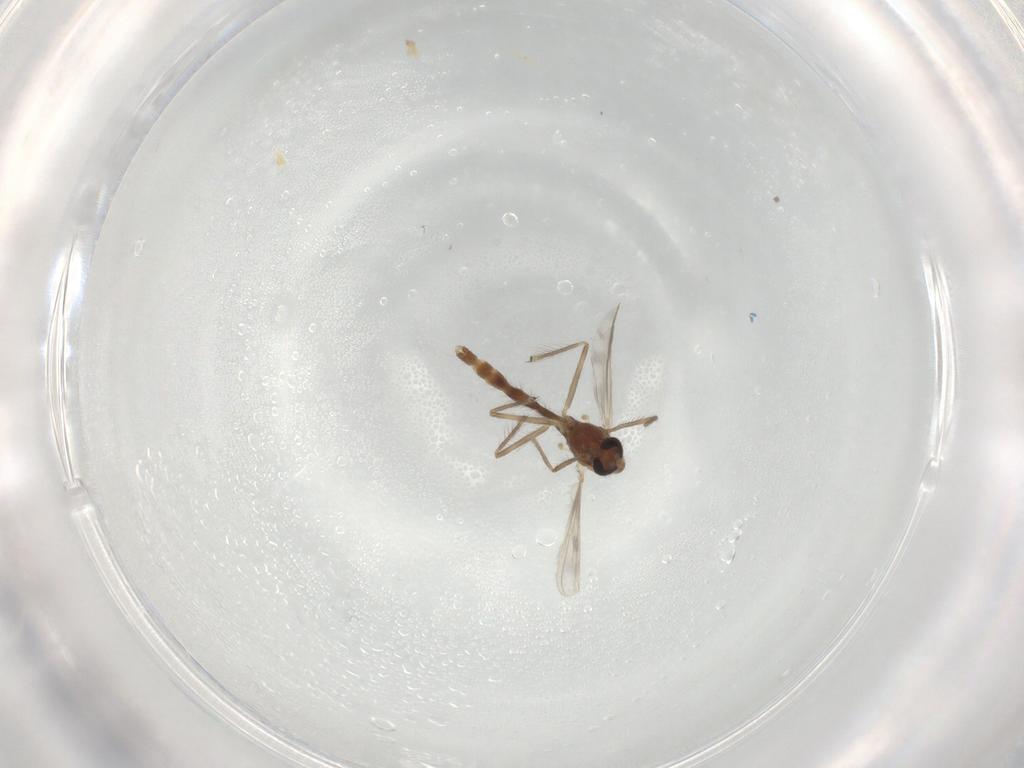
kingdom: Animalia
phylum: Arthropoda
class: Insecta
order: Diptera
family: Chironomidae
